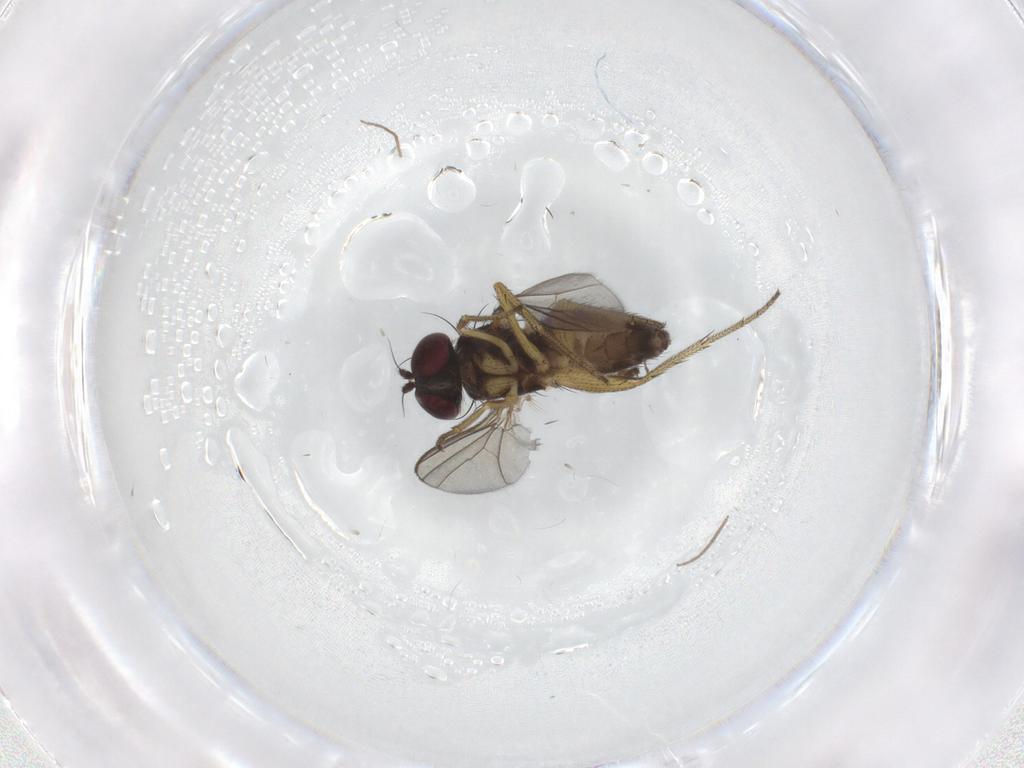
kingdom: Animalia
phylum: Arthropoda
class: Insecta
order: Diptera
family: Chironomidae
